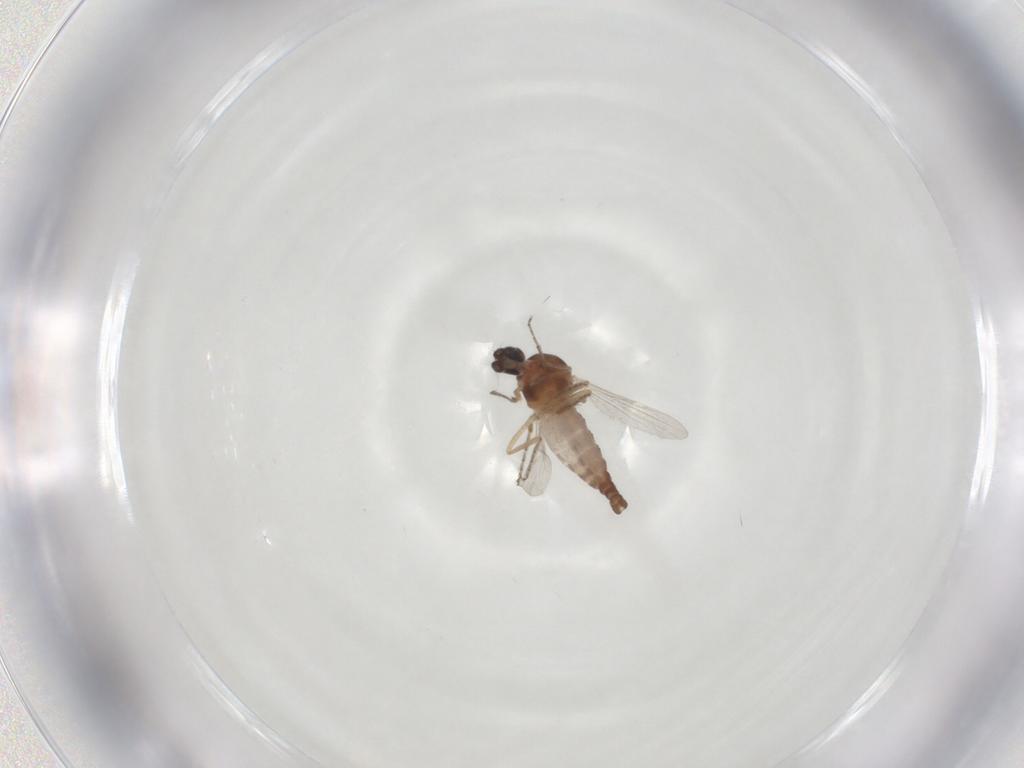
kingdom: Animalia
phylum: Arthropoda
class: Insecta
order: Diptera
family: Ceratopogonidae
